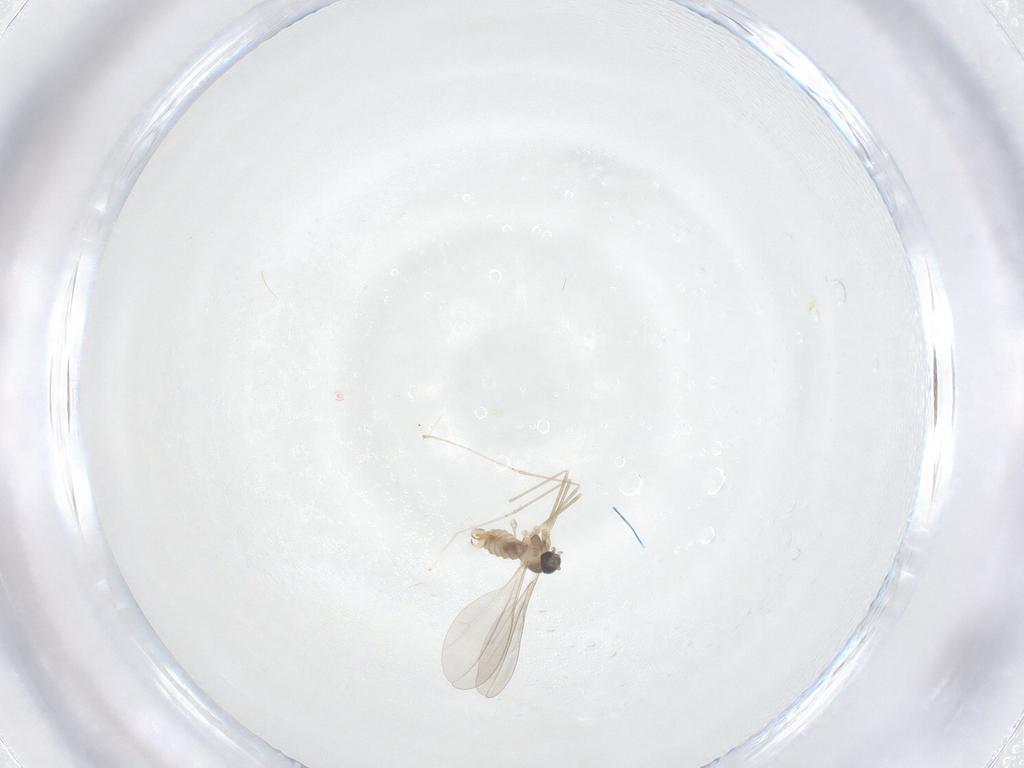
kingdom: Animalia
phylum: Arthropoda
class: Insecta
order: Diptera
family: Cecidomyiidae
